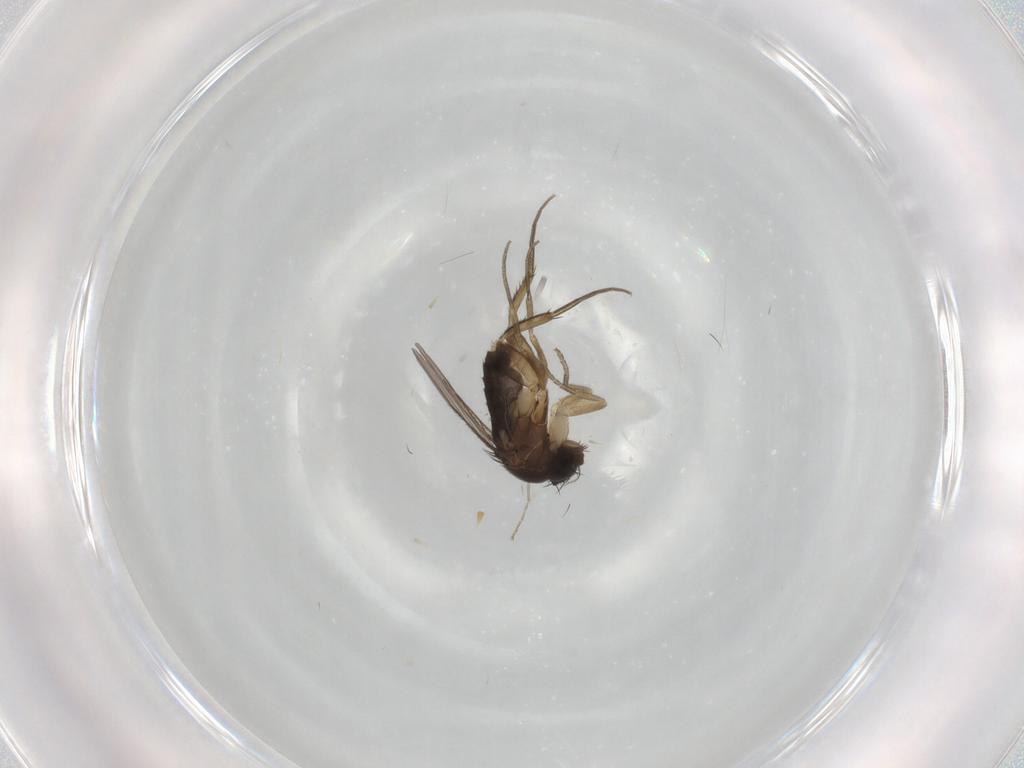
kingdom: Animalia
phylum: Arthropoda
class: Insecta
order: Diptera
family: Phoridae
